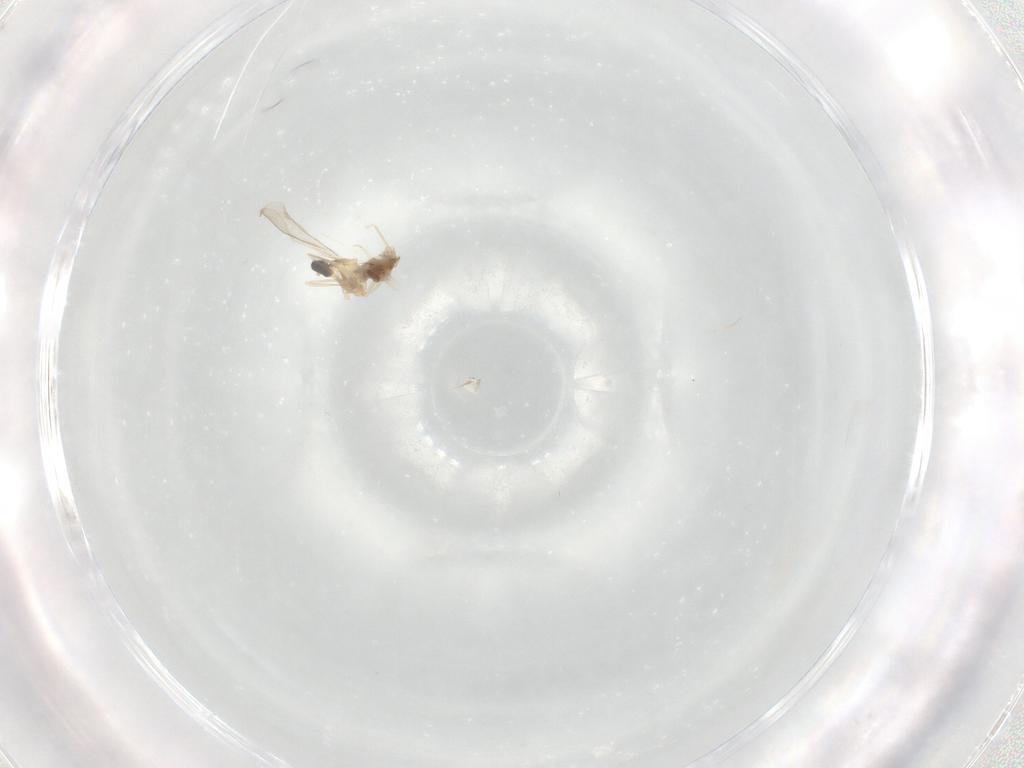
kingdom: Animalia
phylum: Arthropoda
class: Insecta
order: Diptera
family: Cecidomyiidae
